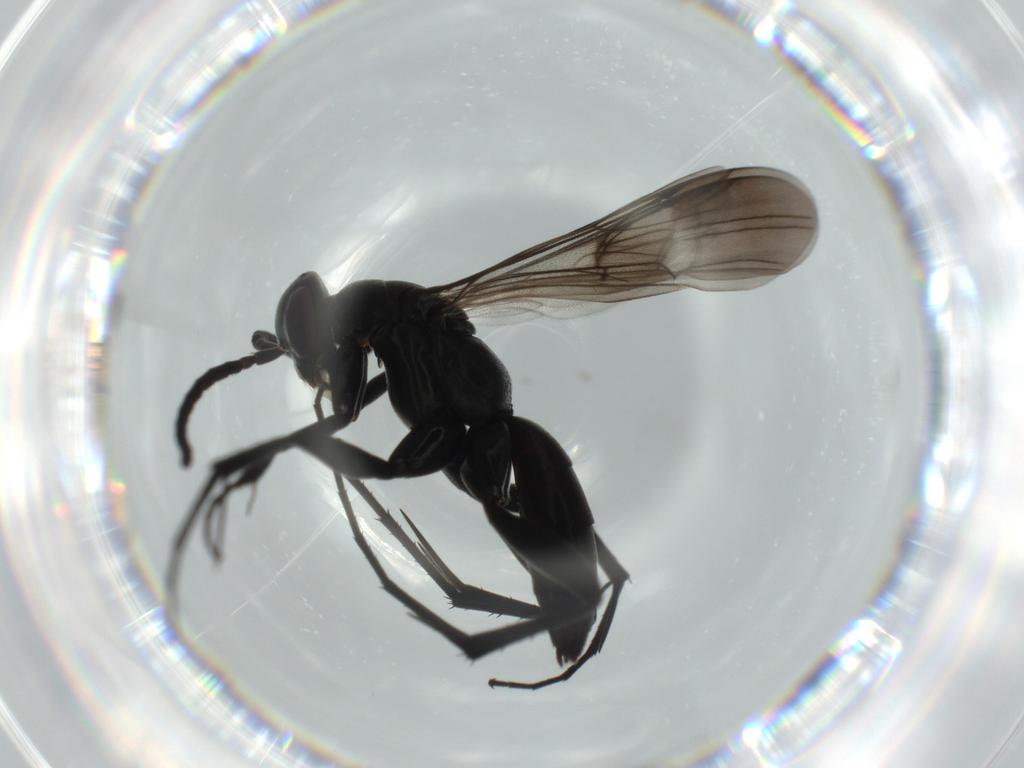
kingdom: Animalia
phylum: Arthropoda
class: Insecta
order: Hymenoptera
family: Pompilidae
